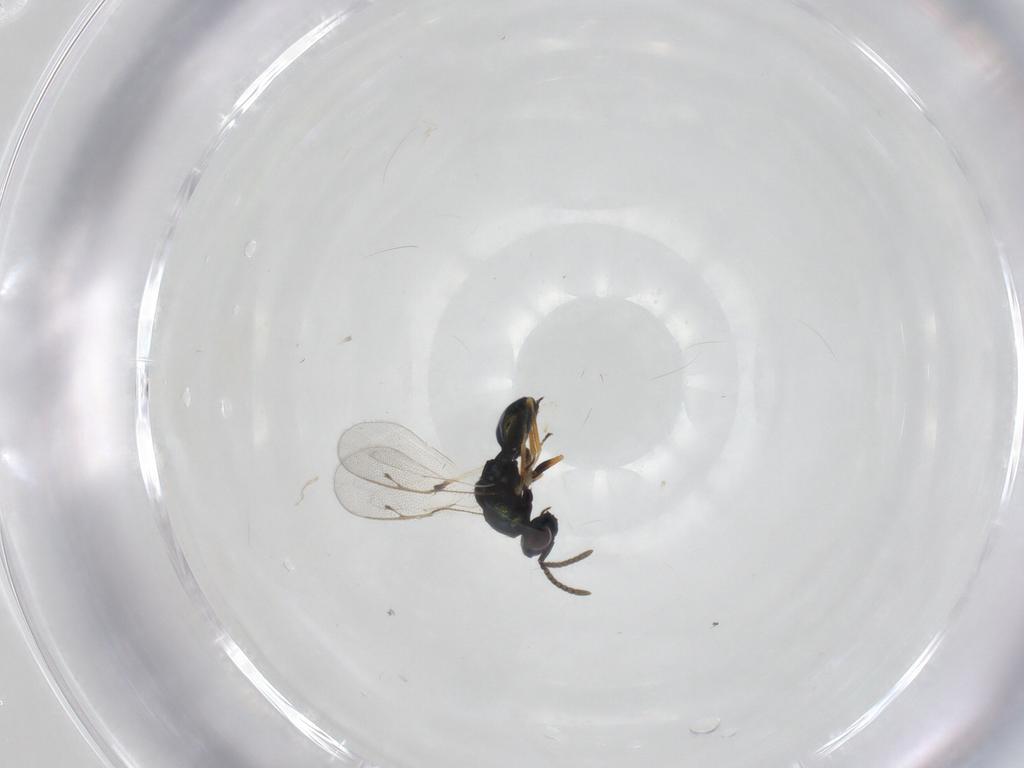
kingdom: Animalia
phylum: Arthropoda
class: Insecta
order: Hymenoptera
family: Pteromalidae
